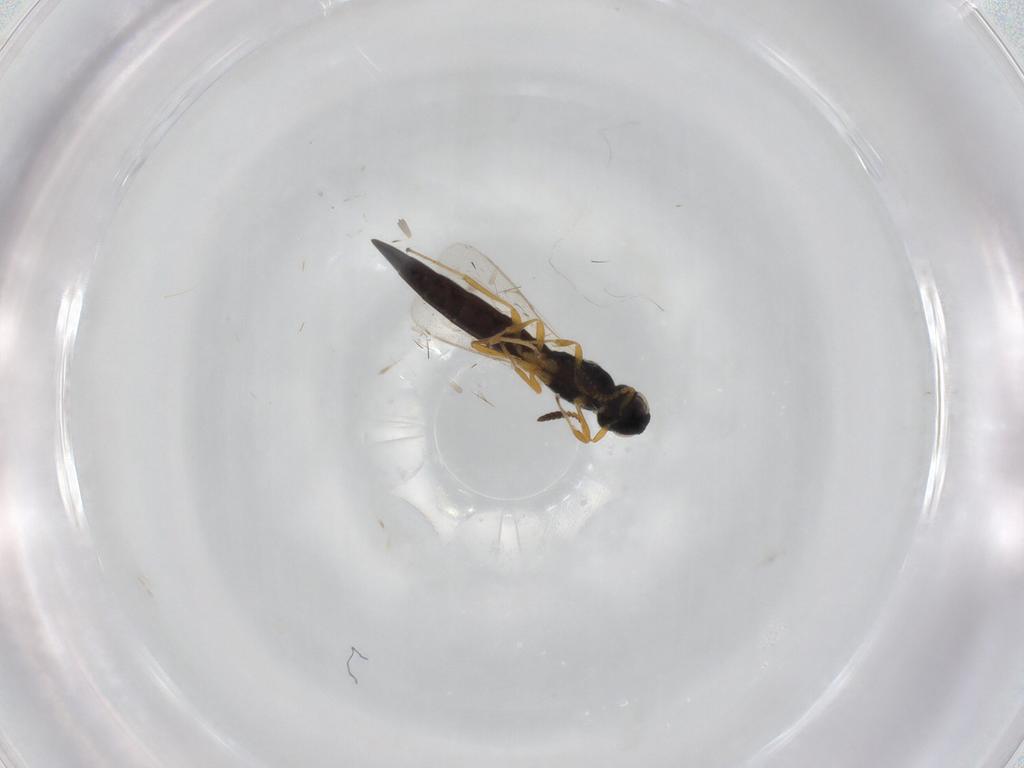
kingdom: Animalia
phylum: Arthropoda
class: Insecta
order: Hymenoptera
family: Scelionidae
